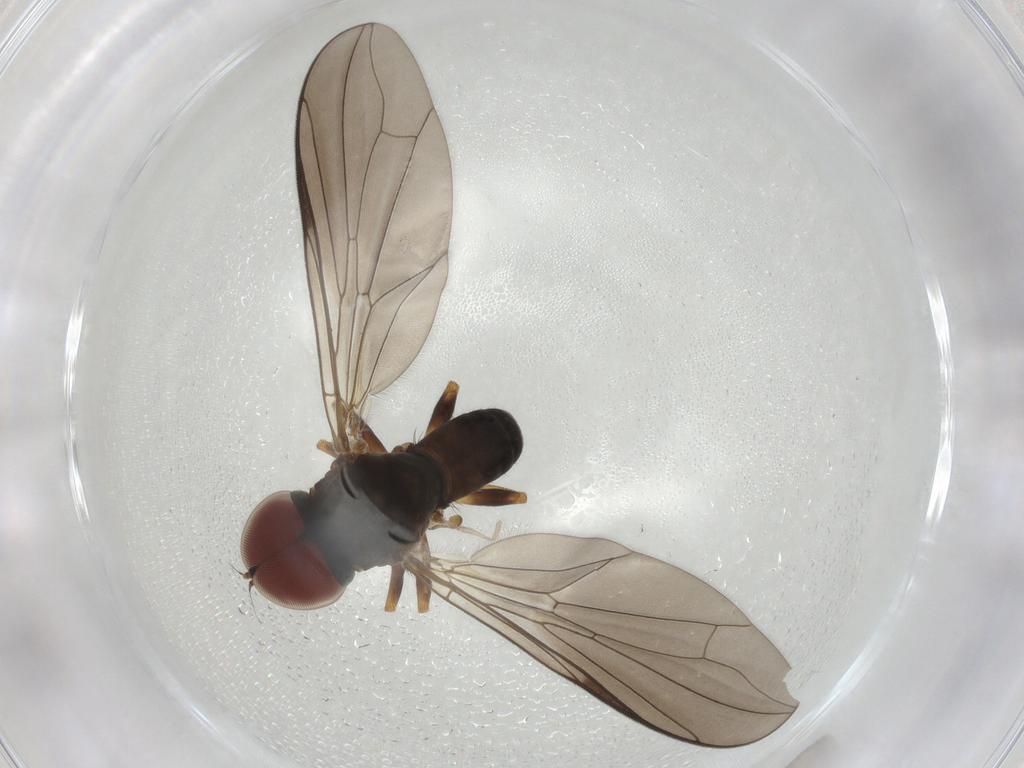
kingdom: Animalia
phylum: Arthropoda
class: Insecta
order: Diptera
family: Pipunculidae
